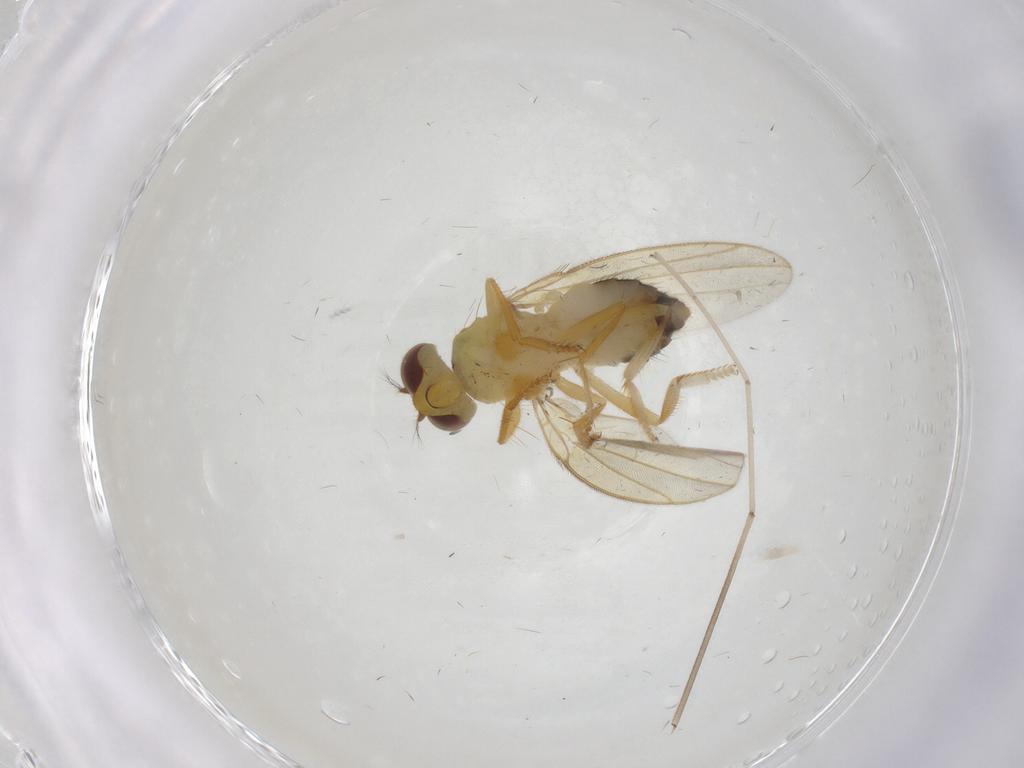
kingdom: Animalia
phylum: Arthropoda
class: Insecta
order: Diptera
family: Periscelididae
